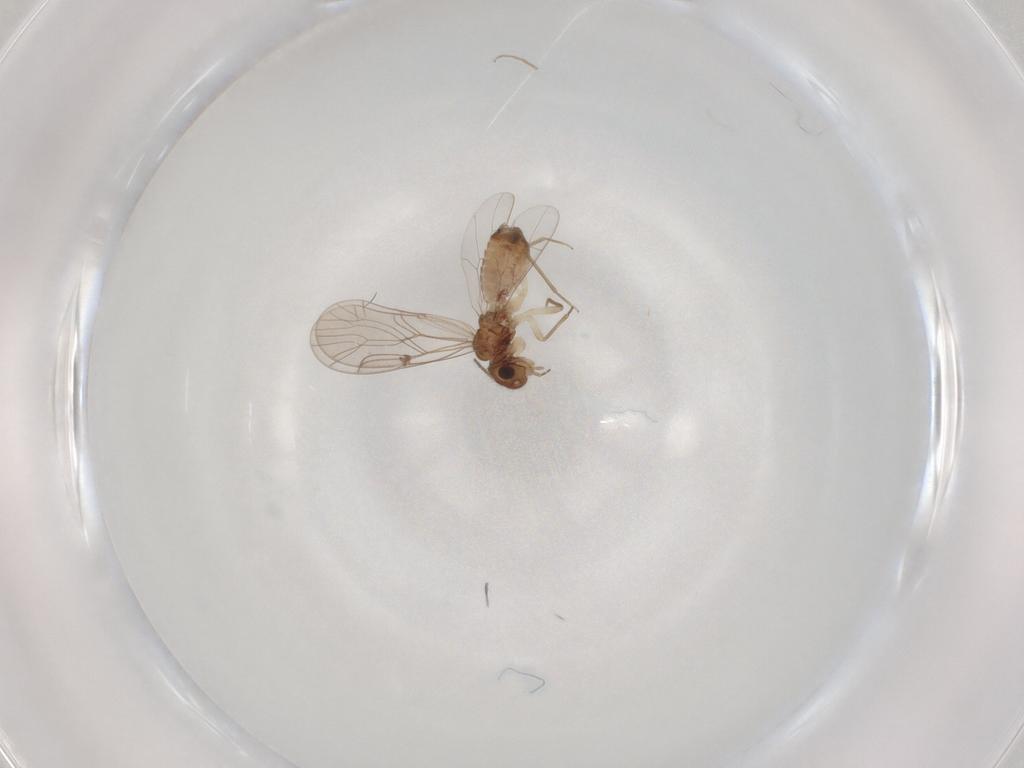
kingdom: Animalia
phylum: Arthropoda
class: Insecta
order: Psocodea
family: Ectopsocidae
